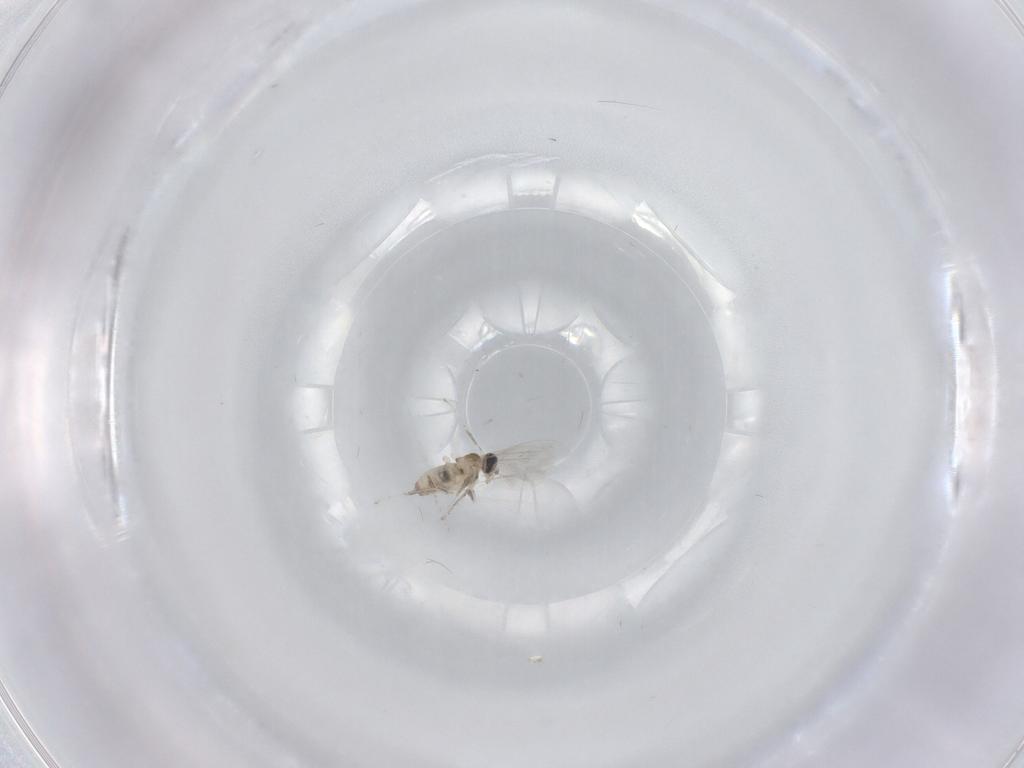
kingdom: Animalia
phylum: Arthropoda
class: Insecta
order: Diptera
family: Cecidomyiidae
